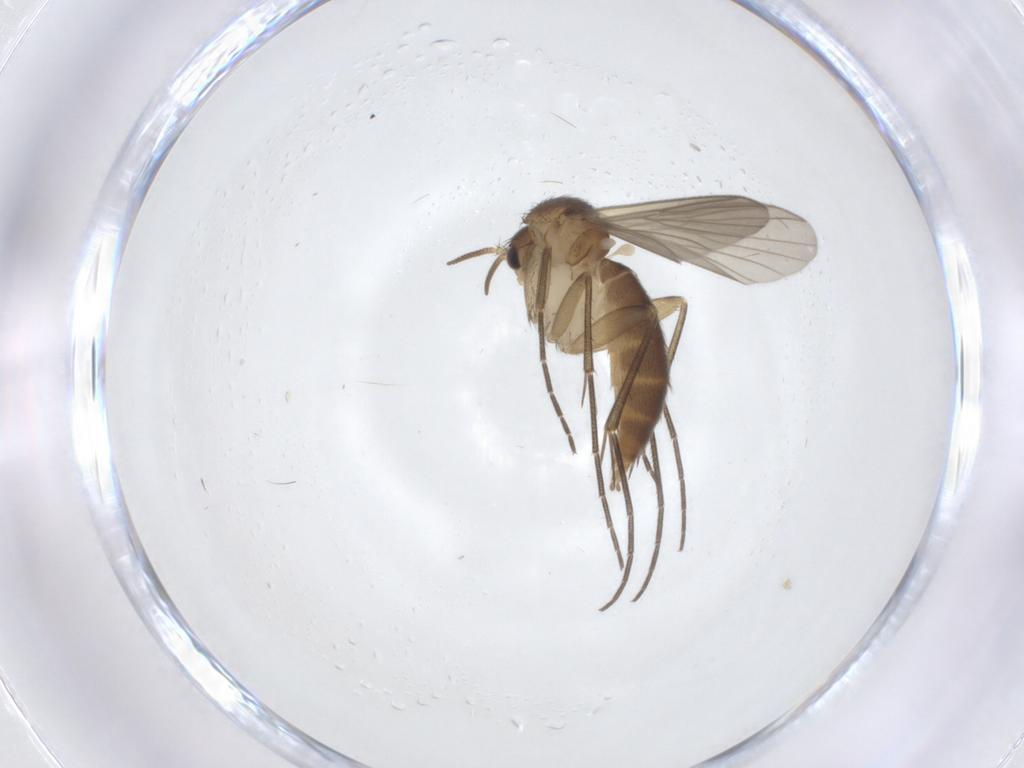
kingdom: Animalia
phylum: Arthropoda
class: Insecta
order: Diptera
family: Mycetophilidae
